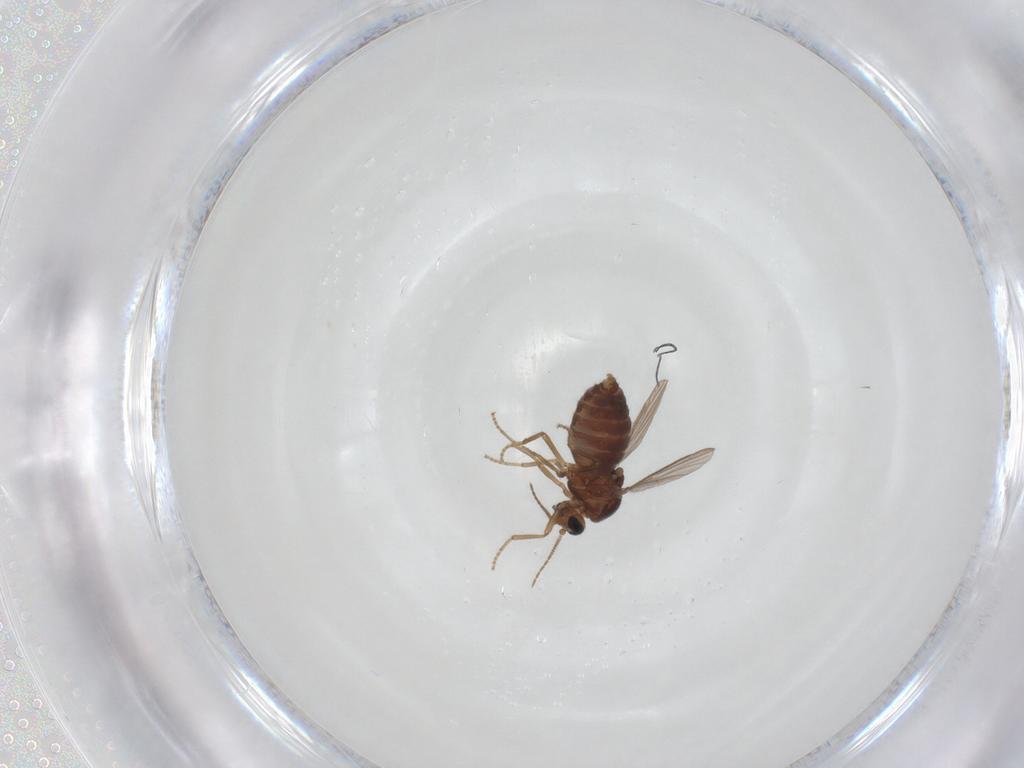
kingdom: Animalia
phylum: Arthropoda
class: Insecta
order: Diptera
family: Ceratopogonidae
